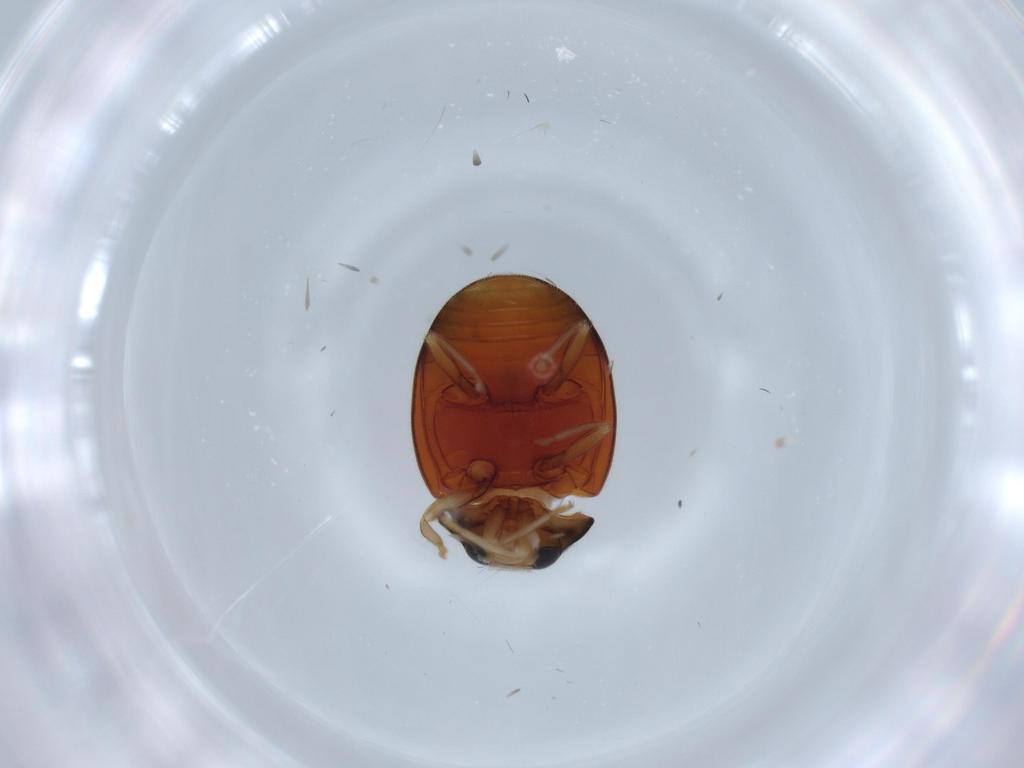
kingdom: Animalia
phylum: Arthropoda
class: Insecta
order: Coleoptera
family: Coccinellidae
